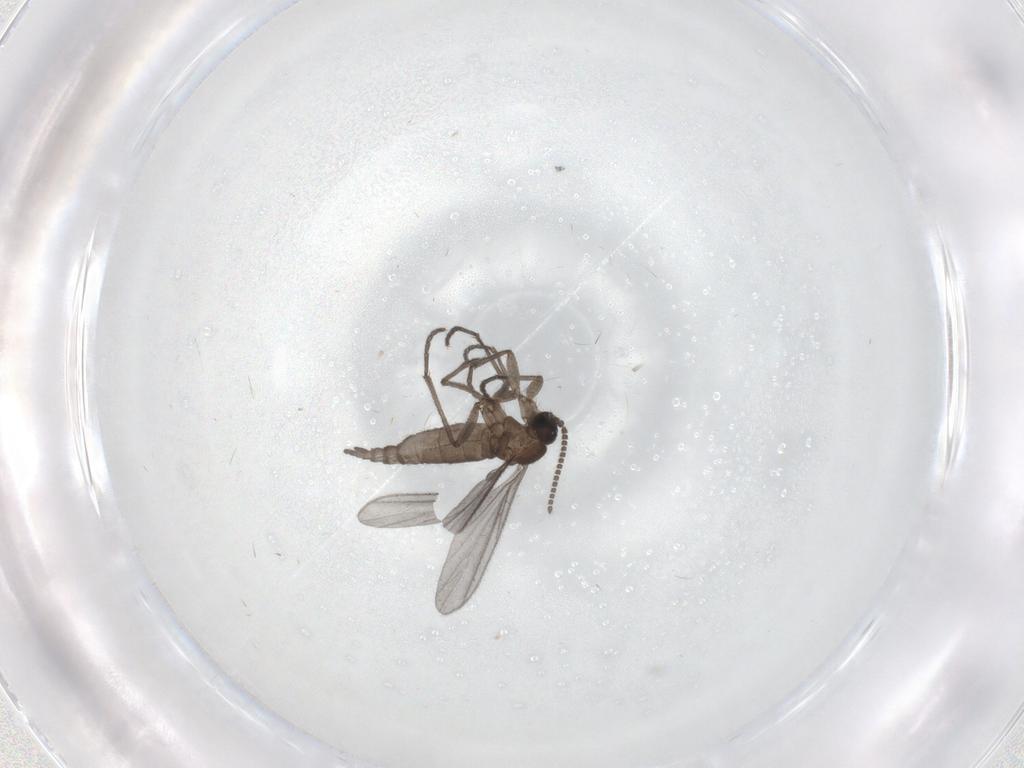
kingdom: Animalia
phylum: Arthropoda
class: Insecta
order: Diptera
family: Sciaridae
